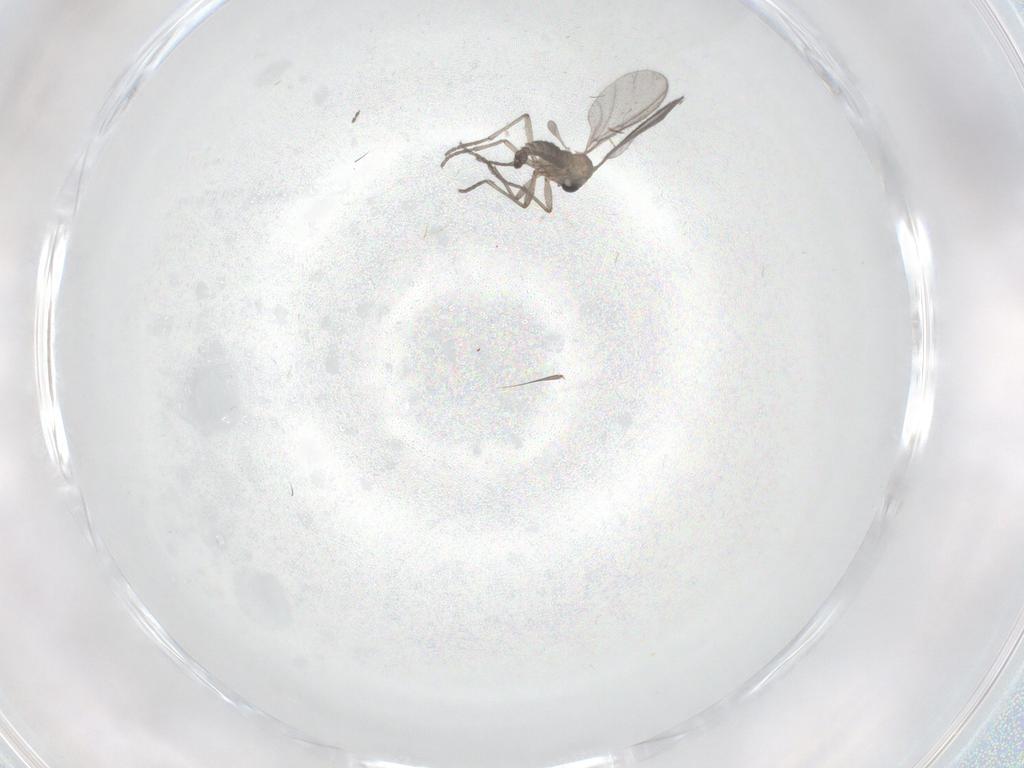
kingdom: Animalia
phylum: Arthropoda
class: Insecta
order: Diptera
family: Cecidomyiidae
